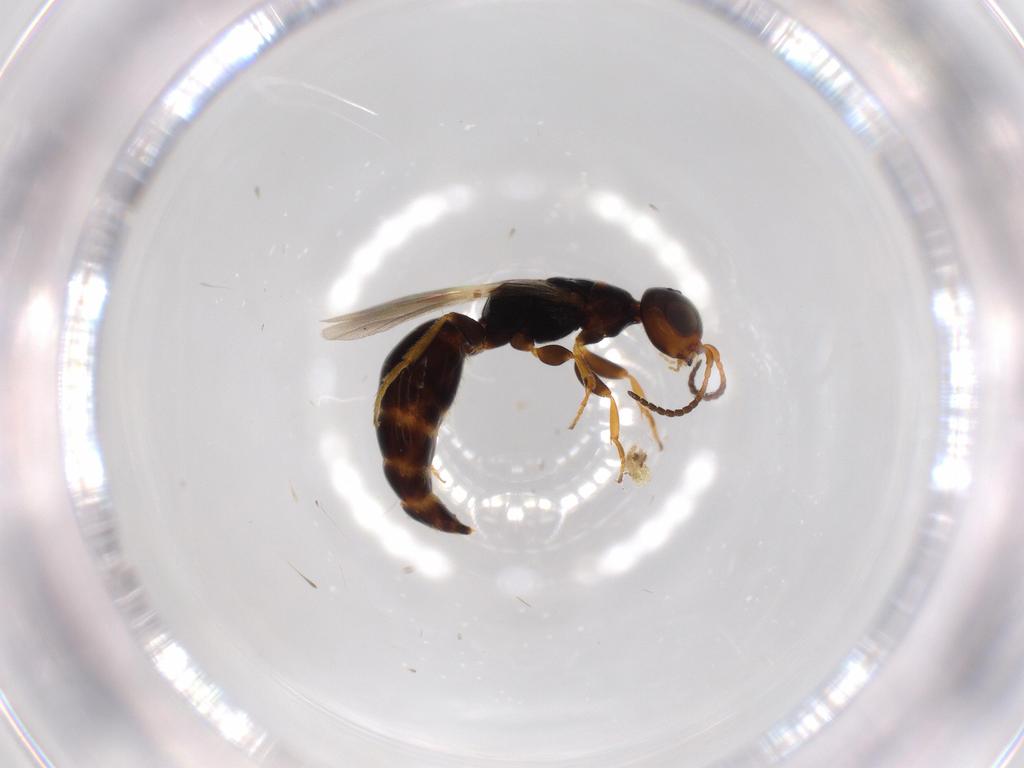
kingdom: Animalia
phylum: Arthropoda
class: Insecta
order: Hymenoptera
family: Bethylidae
